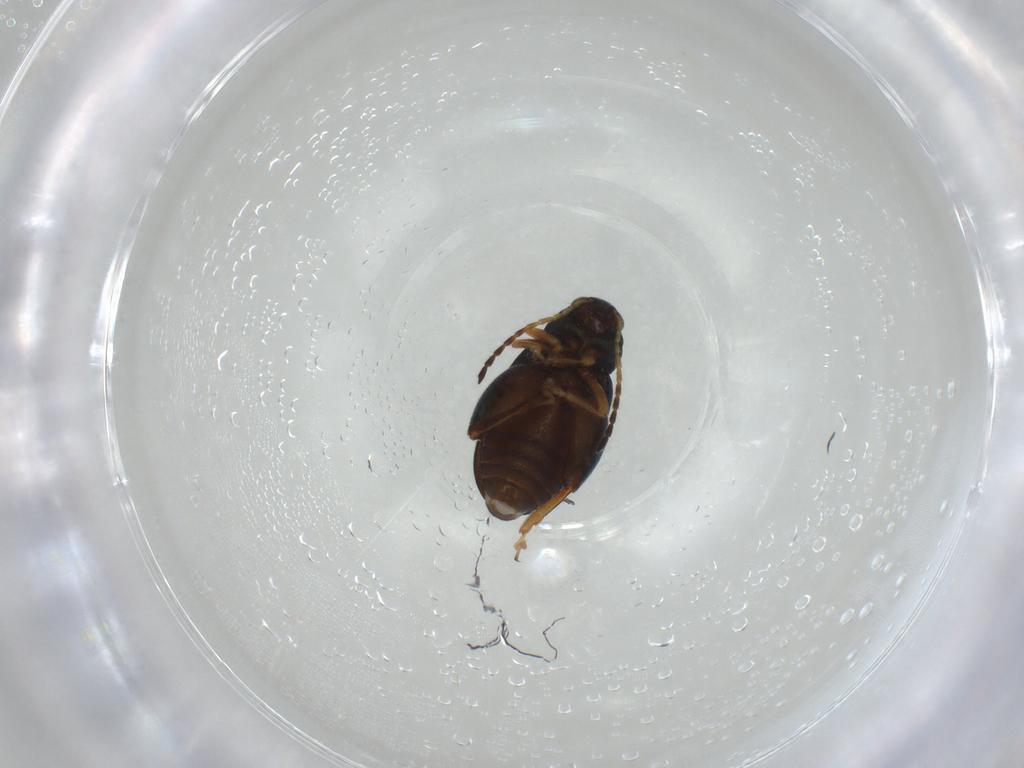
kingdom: Animalia
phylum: Arthropoda
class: Insecta
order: Coleoptera
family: Chrysomelidae
